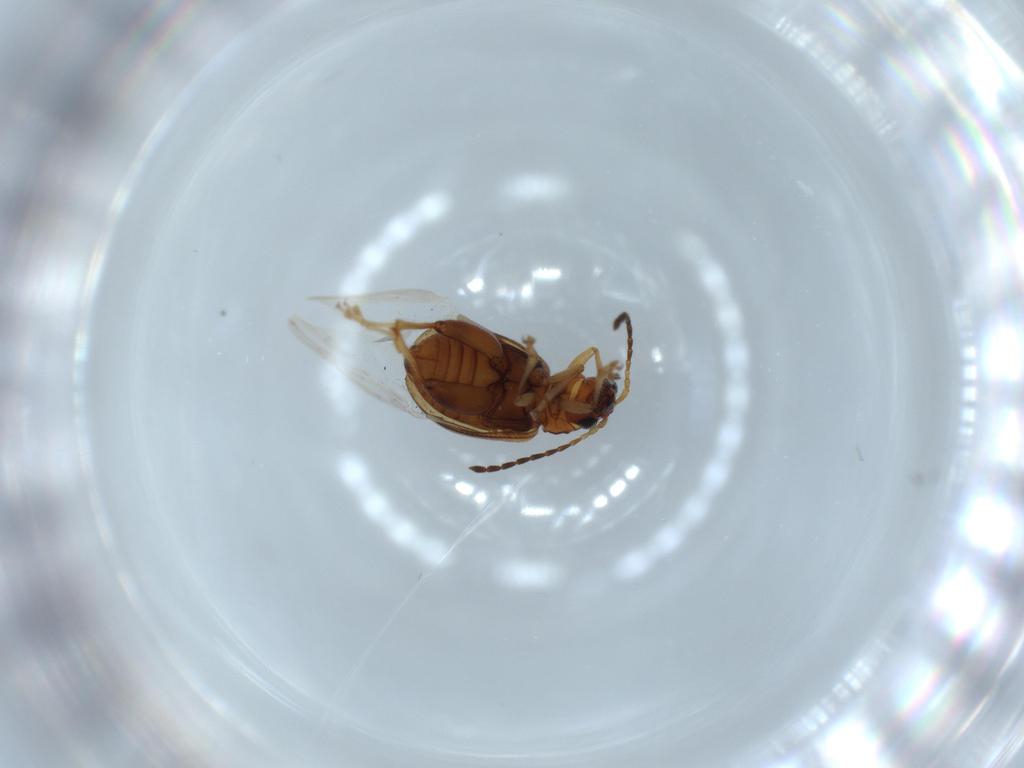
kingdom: Animalia
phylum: Arthropoda
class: Insecta
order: Coleoptera
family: Chrysomelidae
